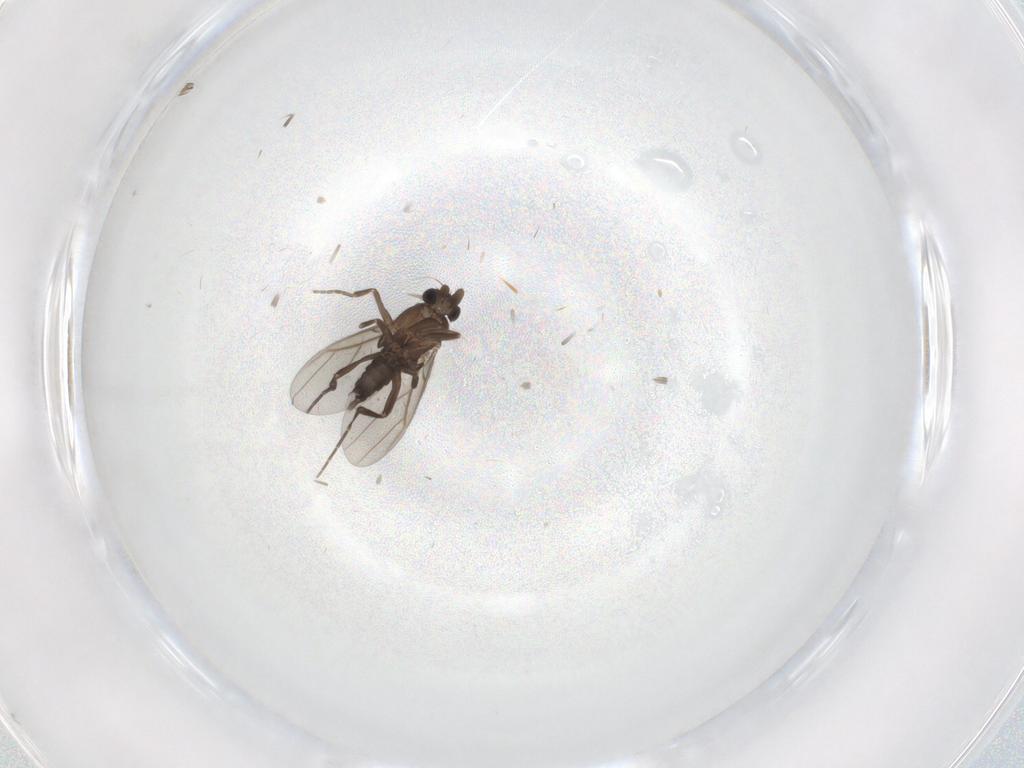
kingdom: Animalia
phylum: Arthropoda
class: Insecta
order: Diptera
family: Phoridae
